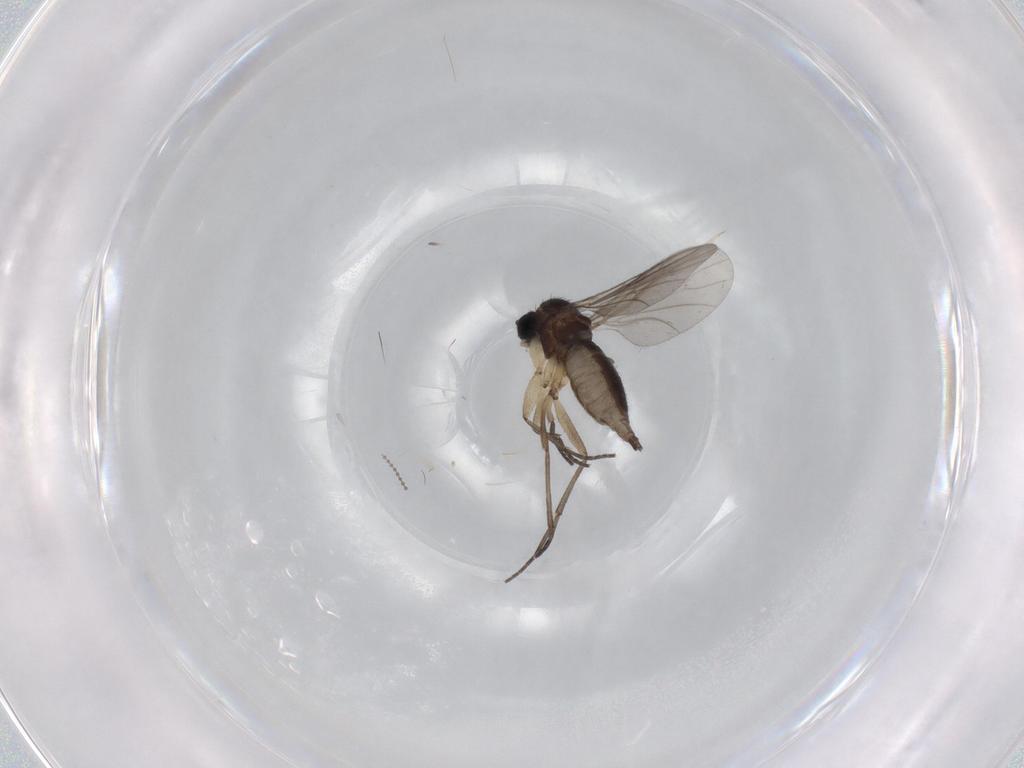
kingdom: Animalia
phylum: Arthropoda
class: Insecta
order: Diptera
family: Sciaridae
